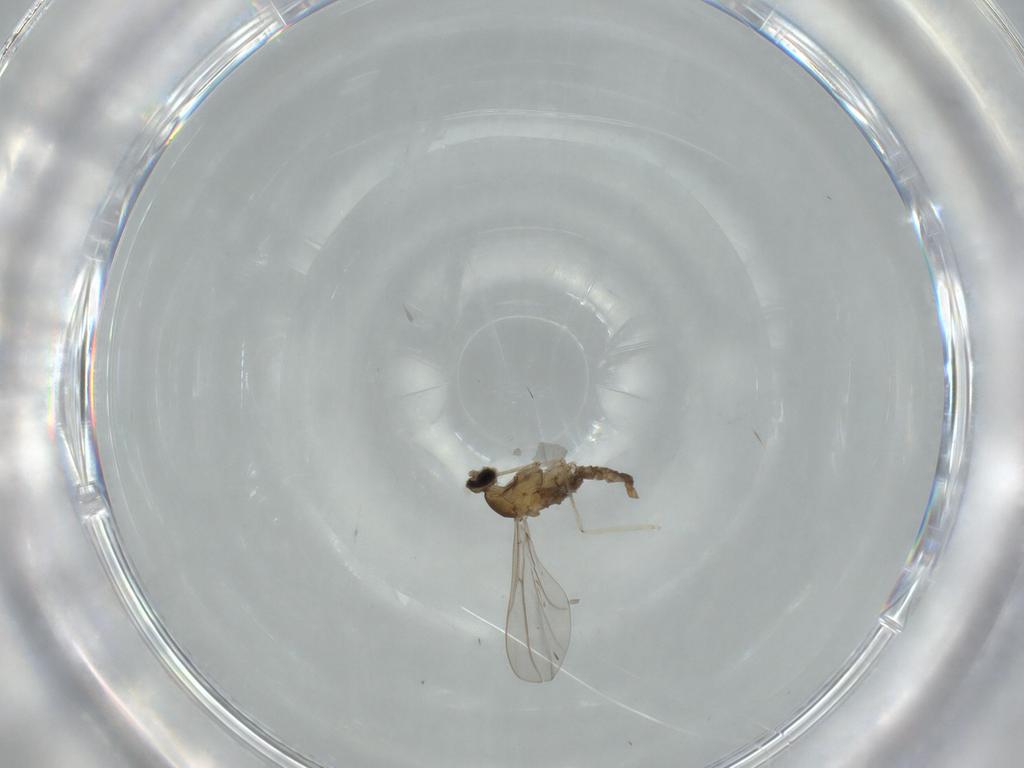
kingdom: Animalia
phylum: Arthropoda
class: Insecta
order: Diptera
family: Cecidomyiidae
